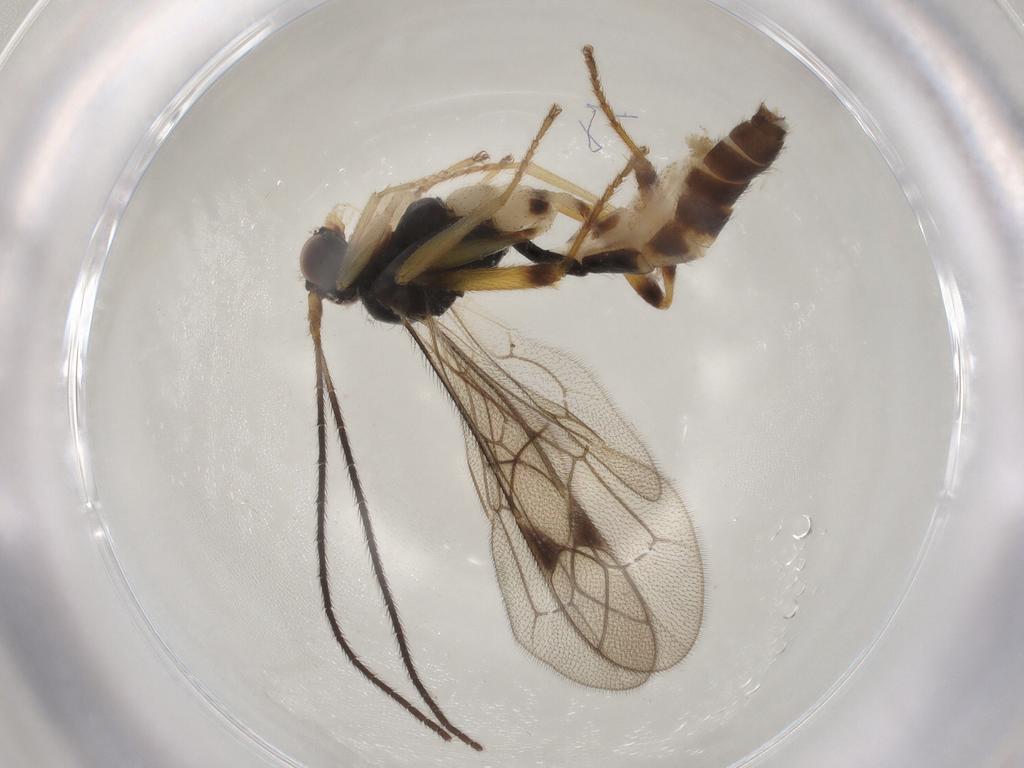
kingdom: Animalia
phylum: Arthropoda
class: Insecta
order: Hymenoptera
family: Ichneumonidae
